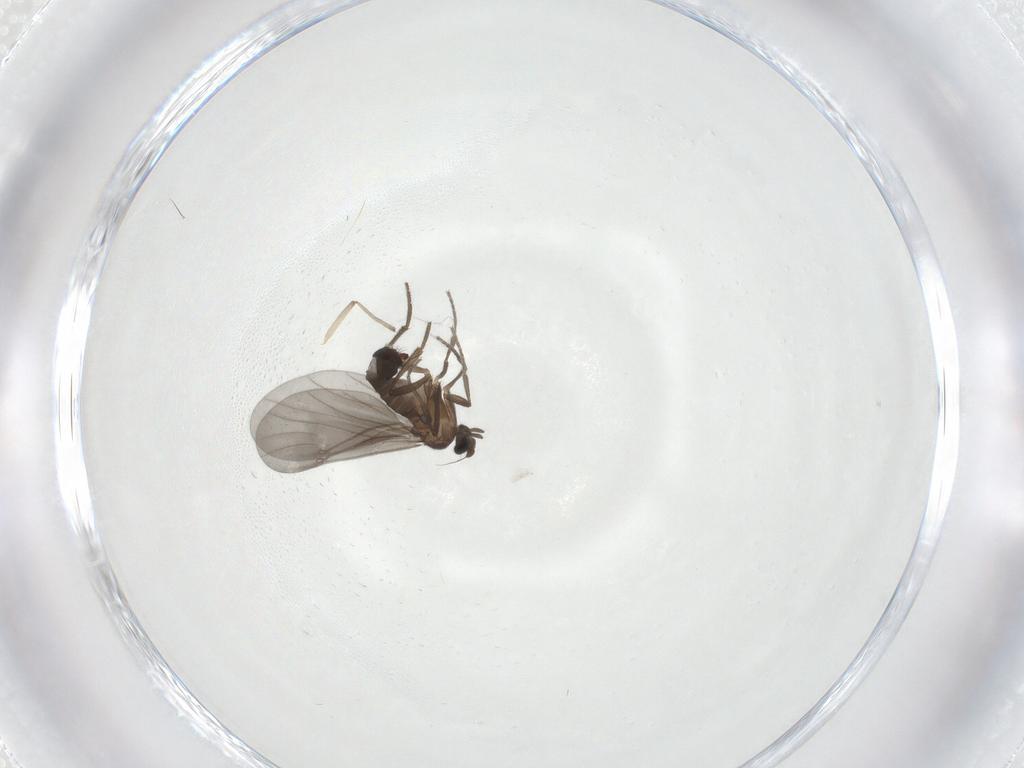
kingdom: Animalia
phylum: Arthropoda
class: Insecta
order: Diptera
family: Phoridae
